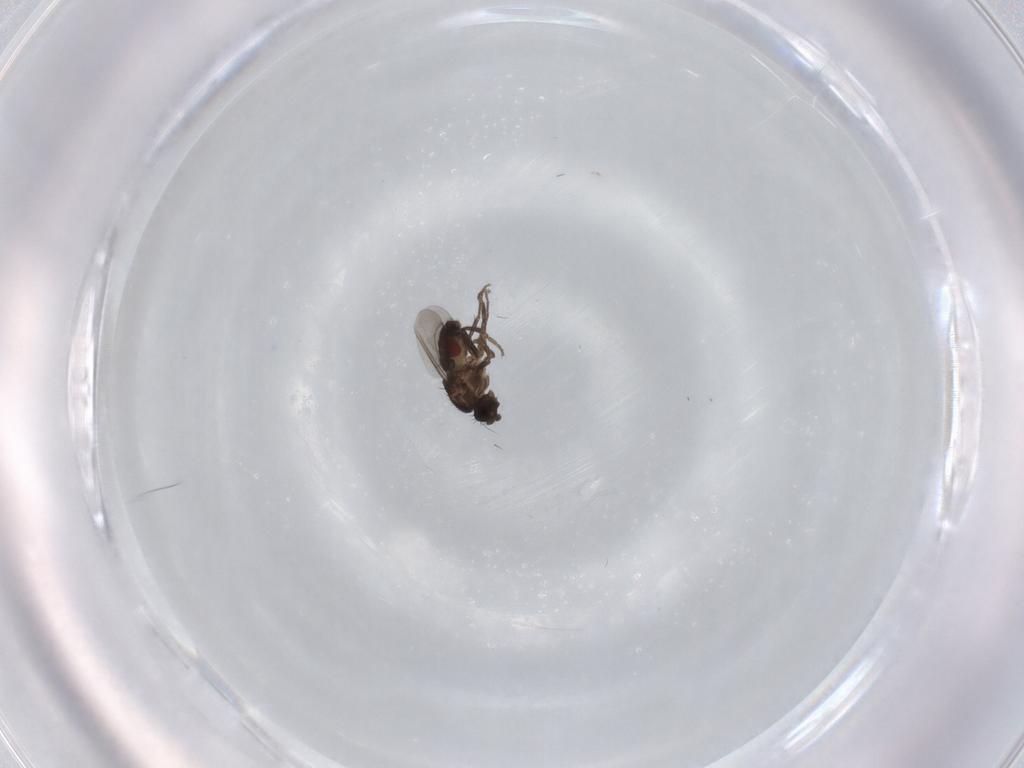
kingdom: Animalia
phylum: Arthropoda
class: Insecta
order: Diptera
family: Sphaeroceridae
